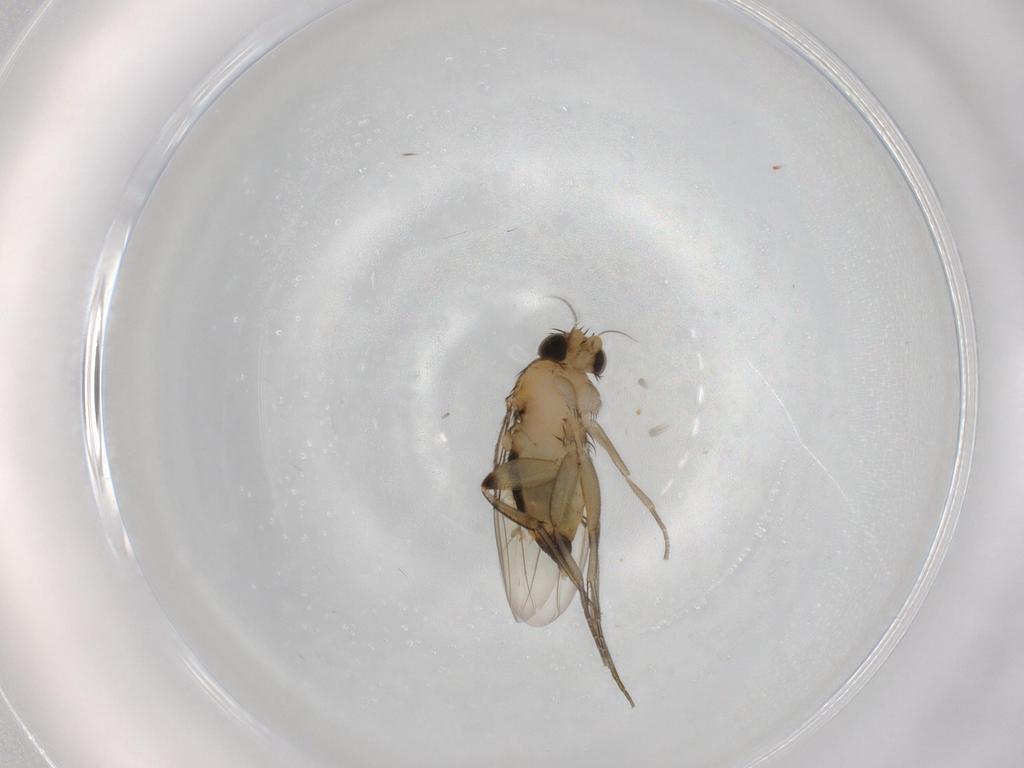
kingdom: Animalia
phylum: Arthropoda
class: Insecta
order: Diptera
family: Phoridae
